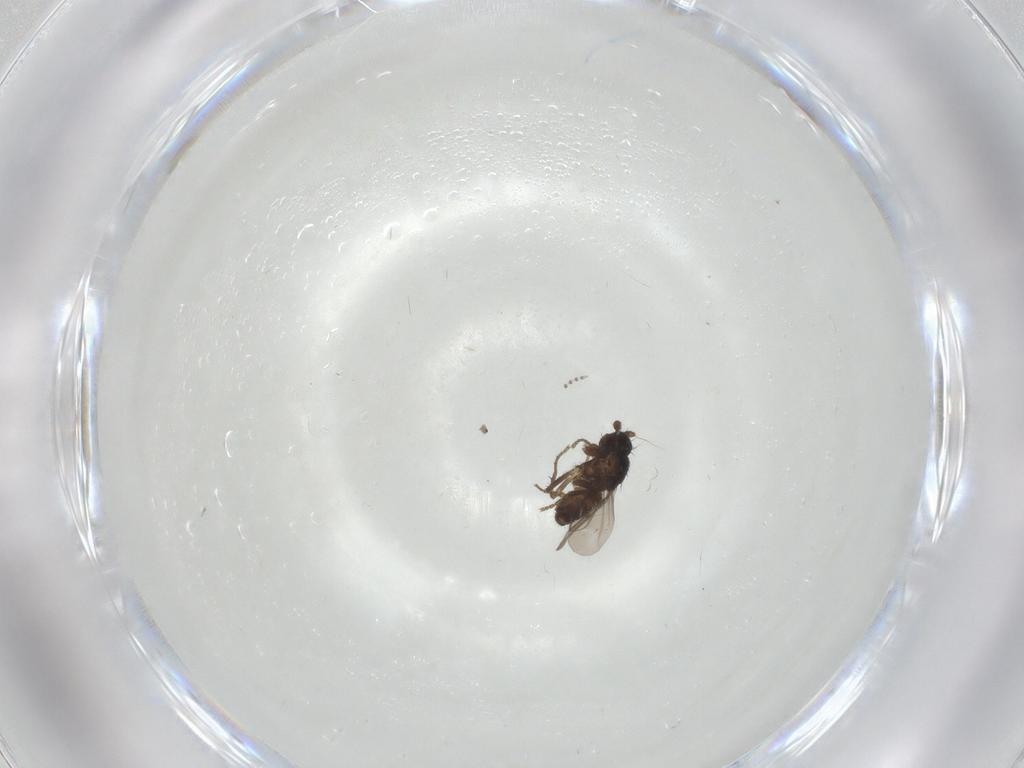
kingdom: Animalia
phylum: Arthropoda
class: Insecta
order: Diptera
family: Sphaeroceridae
